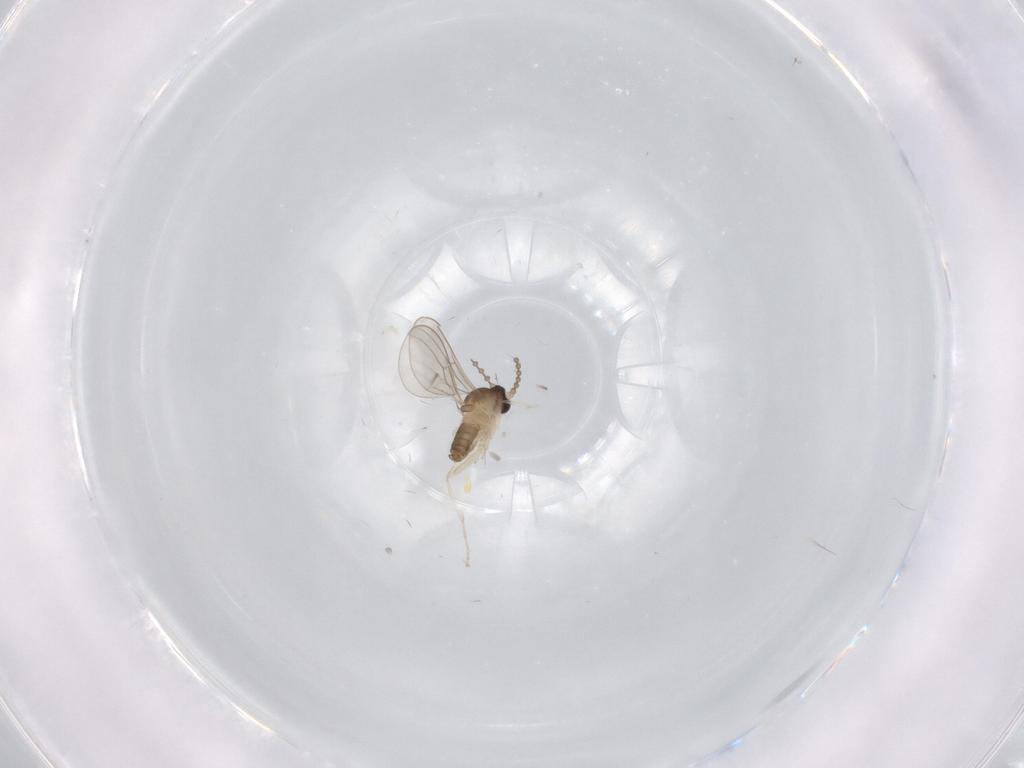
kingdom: Animalia
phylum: Arthropoda
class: Insecta
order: Diptera
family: Cecidomyiidae
